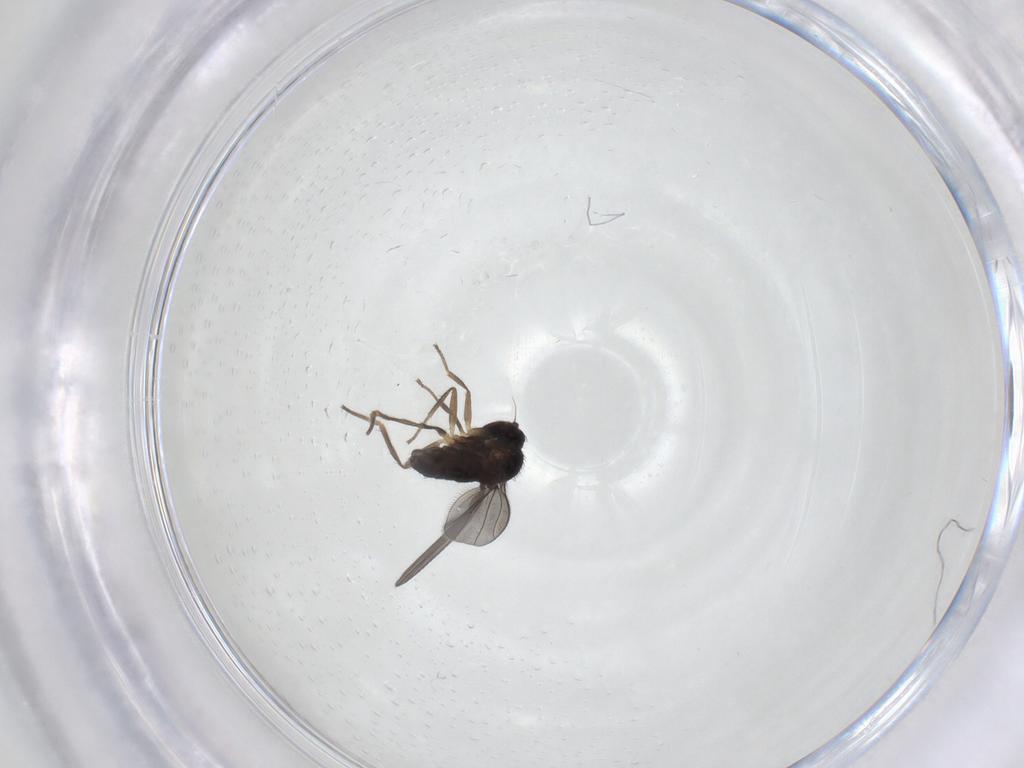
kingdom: Animalia
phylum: Arthropoda
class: Insecta
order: Diptera
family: Dolichopodidae
